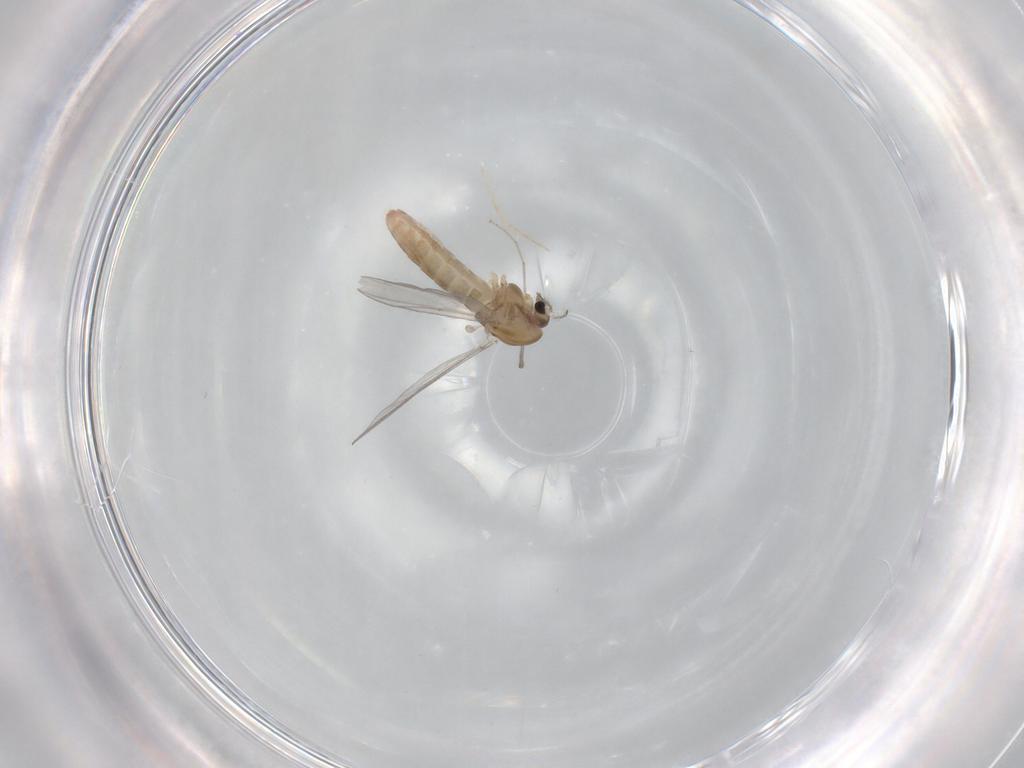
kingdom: Animalia
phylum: Arthropoda
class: Insecta
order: Diptera
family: Chironomidae
